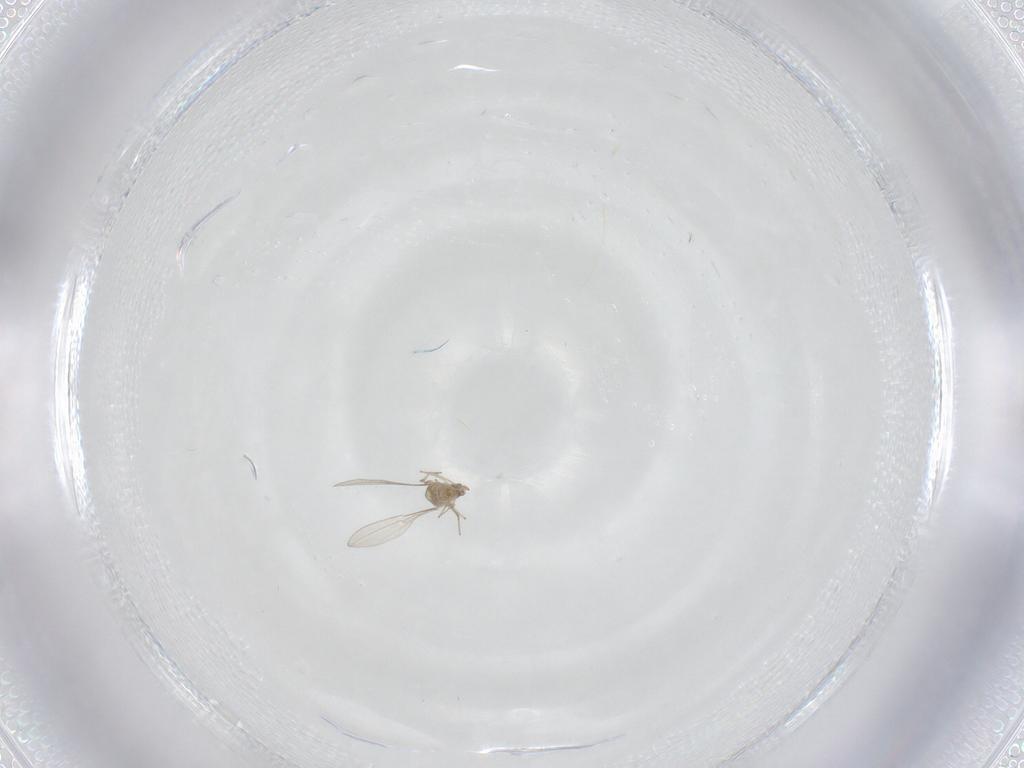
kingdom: Animalia
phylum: Arthropoda
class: Insecta
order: Diptera
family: Cecidomyiidae
